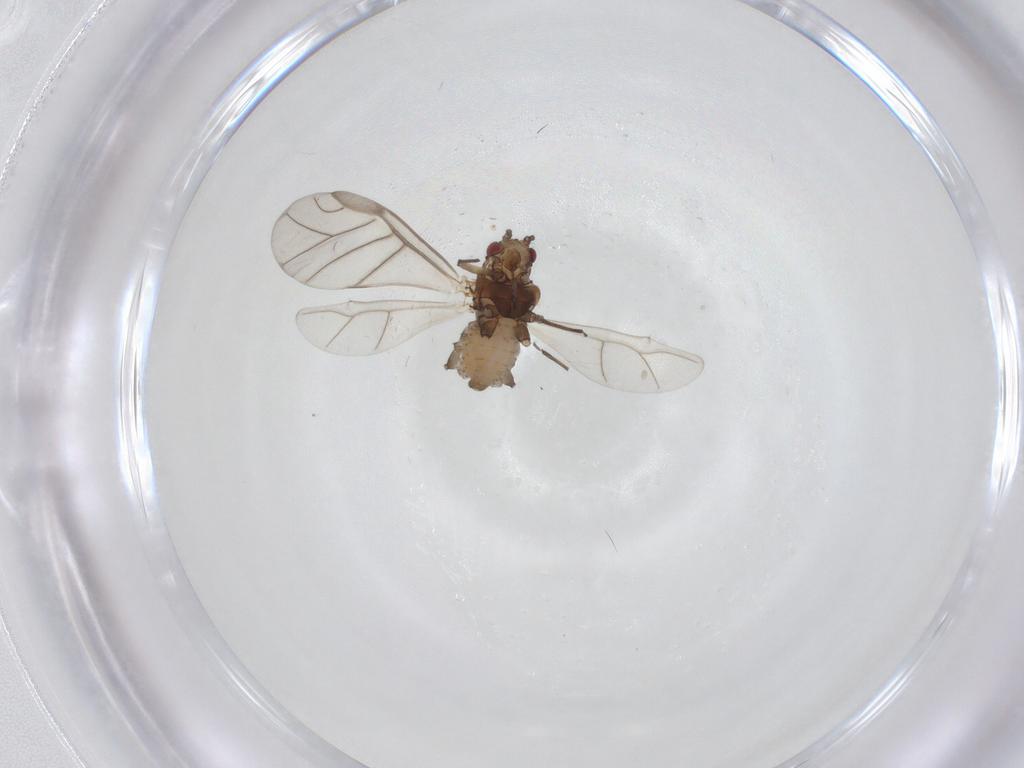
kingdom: Animalia
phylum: Arthropoda
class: Insecta
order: Hemiptera
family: Aphididae
